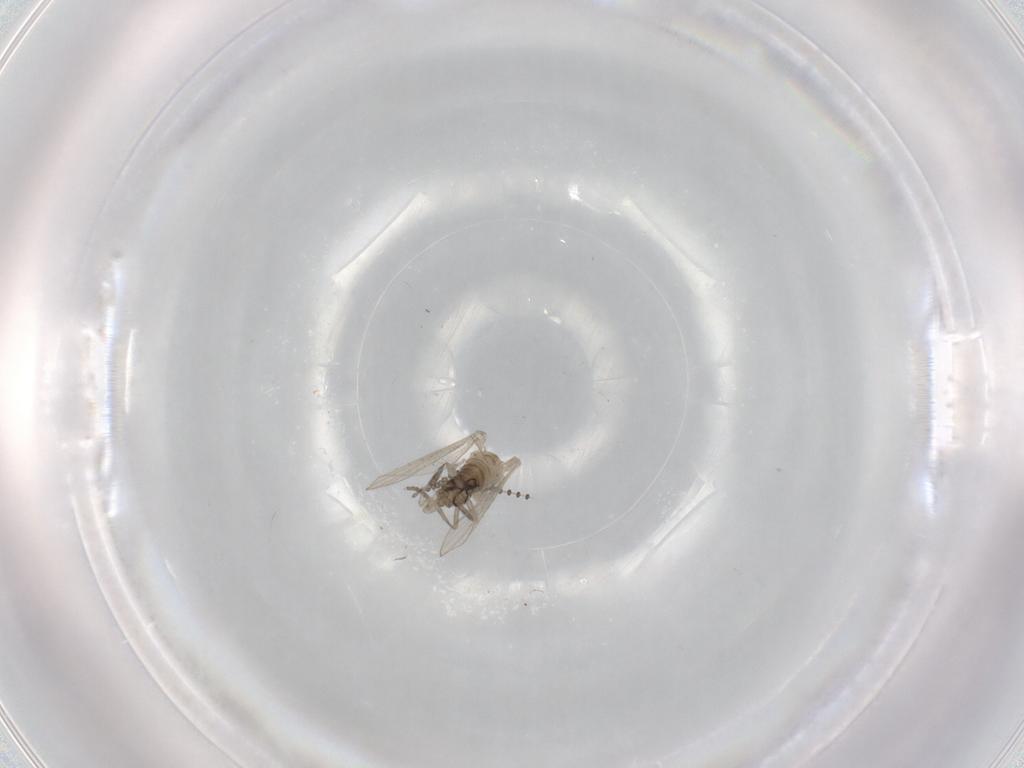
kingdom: Animalia
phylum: Arthropoda
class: Insecta
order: Diptera
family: Psychodidae
